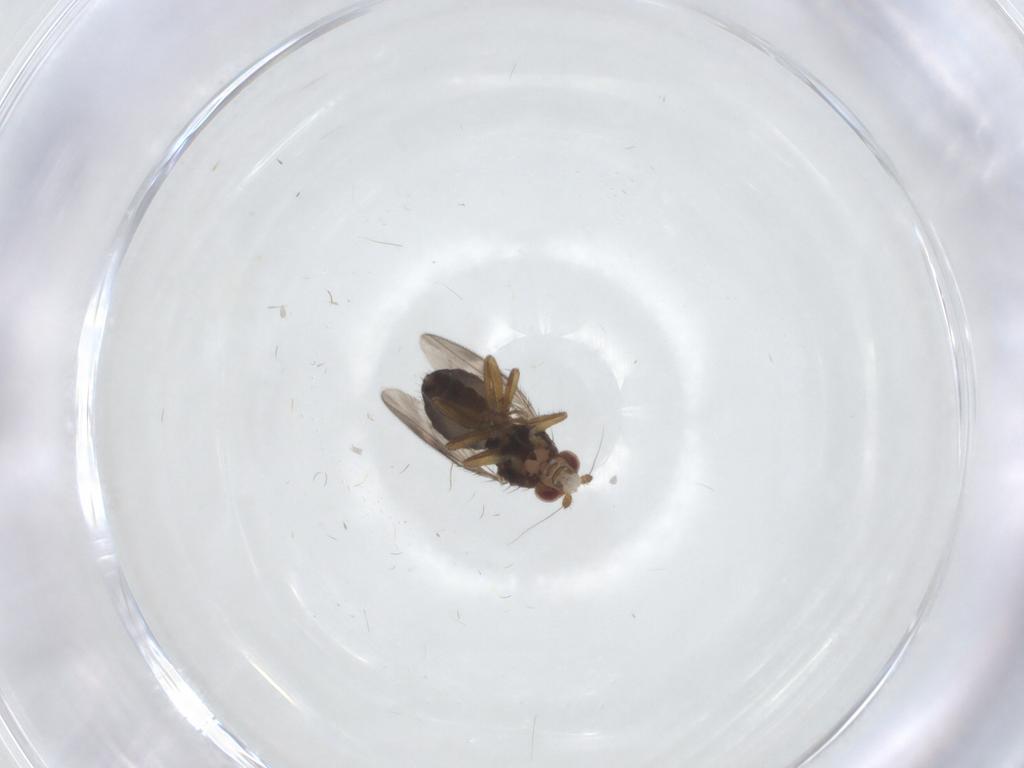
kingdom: Animalia
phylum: Arthropoda
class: Insecta
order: Diptera
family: Sphaeroceridae
